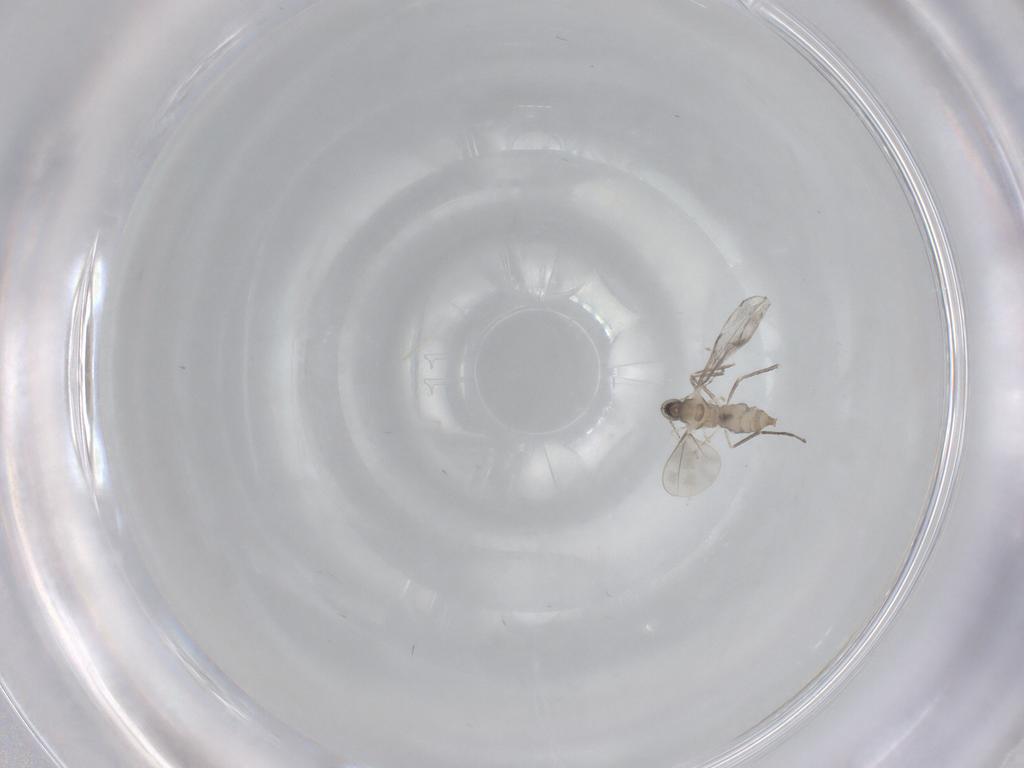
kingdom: Animalia
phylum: Arthropoda
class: Insecta
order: Diptera
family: Cecidomyiidae
